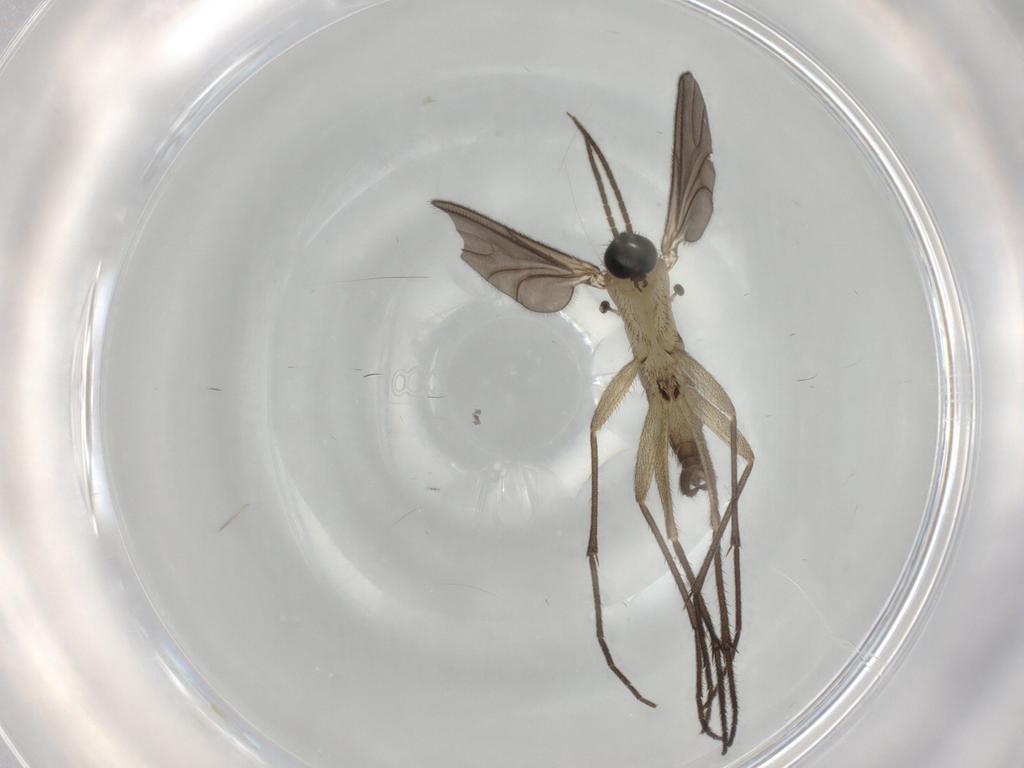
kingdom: Animalia
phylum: Arthropoda
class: Insecta
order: Diptera
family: Sciaridae
